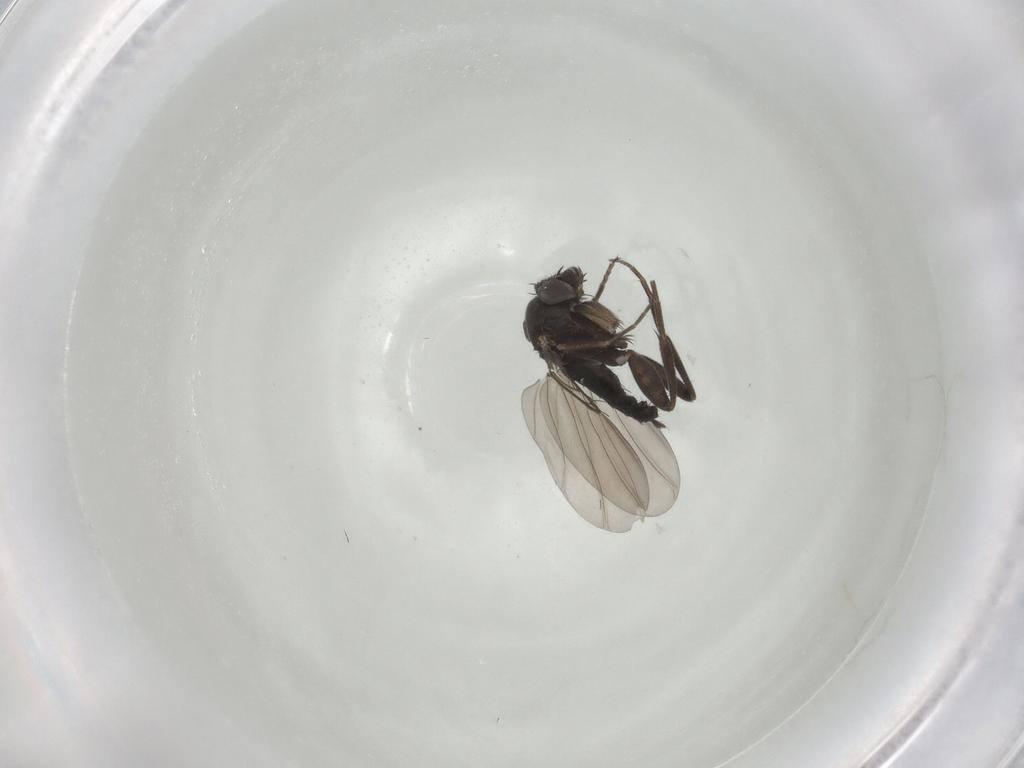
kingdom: Animalia
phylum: Arthropoda
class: Insecta
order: Diptera
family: Phoridae
